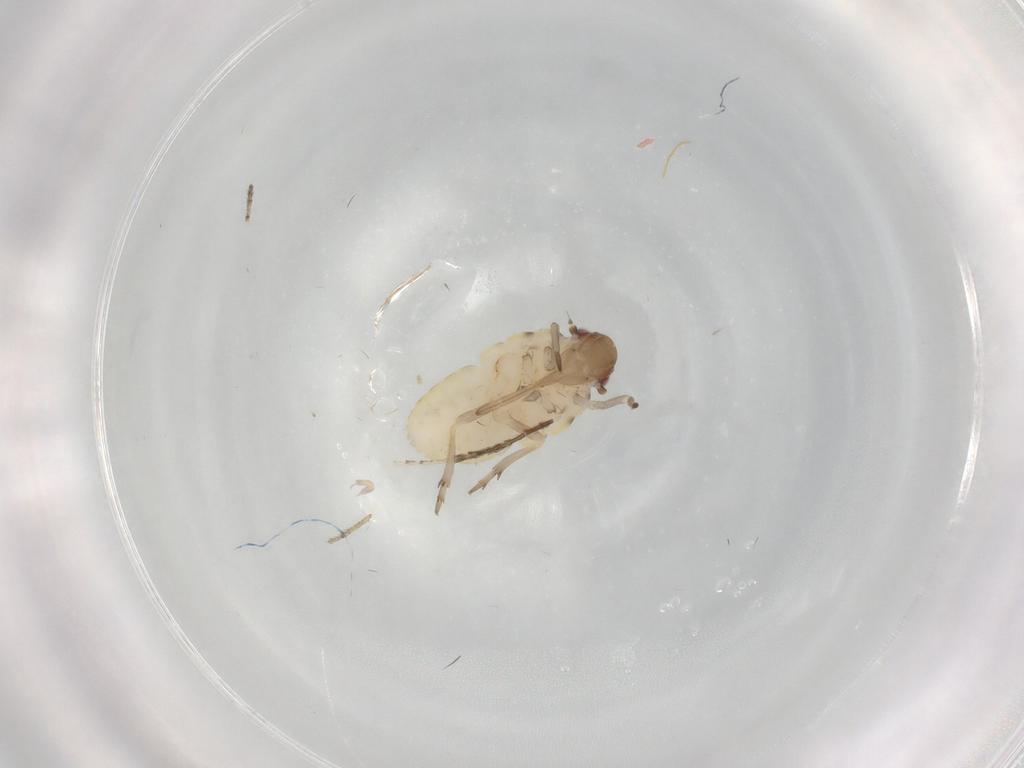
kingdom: Animalia
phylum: Arthropoda
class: Insecta
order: Hemiptera
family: Flatidae
